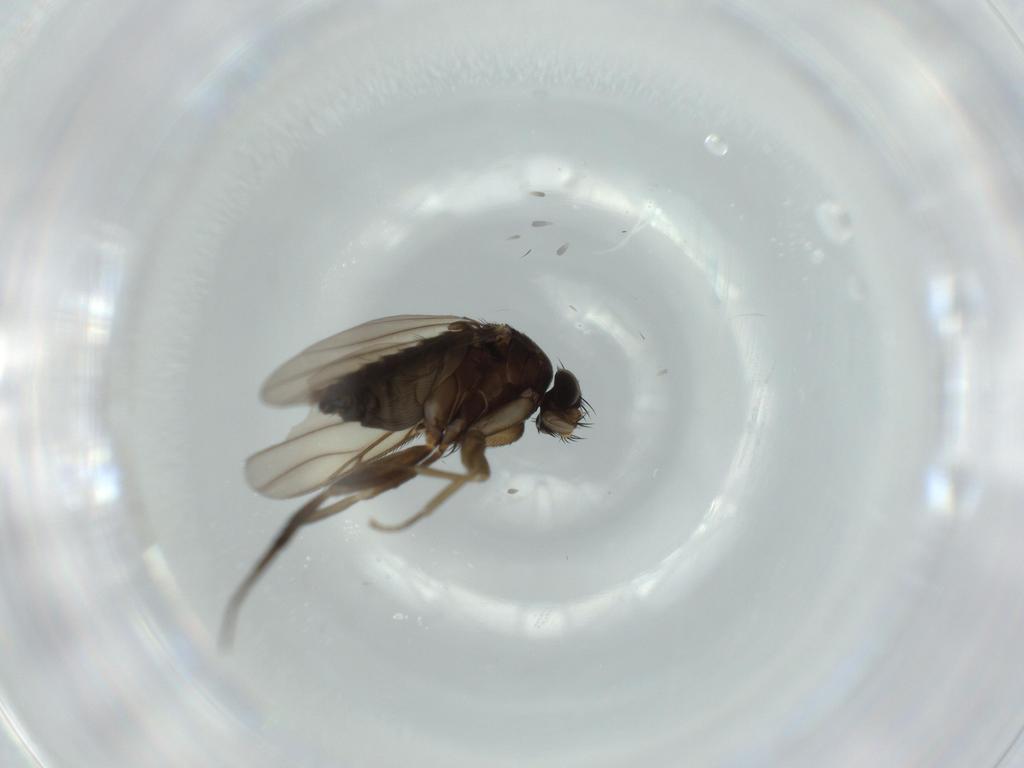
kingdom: Animalia
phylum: Arthropoda
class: Insecta
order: Diptera
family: Phoridae
